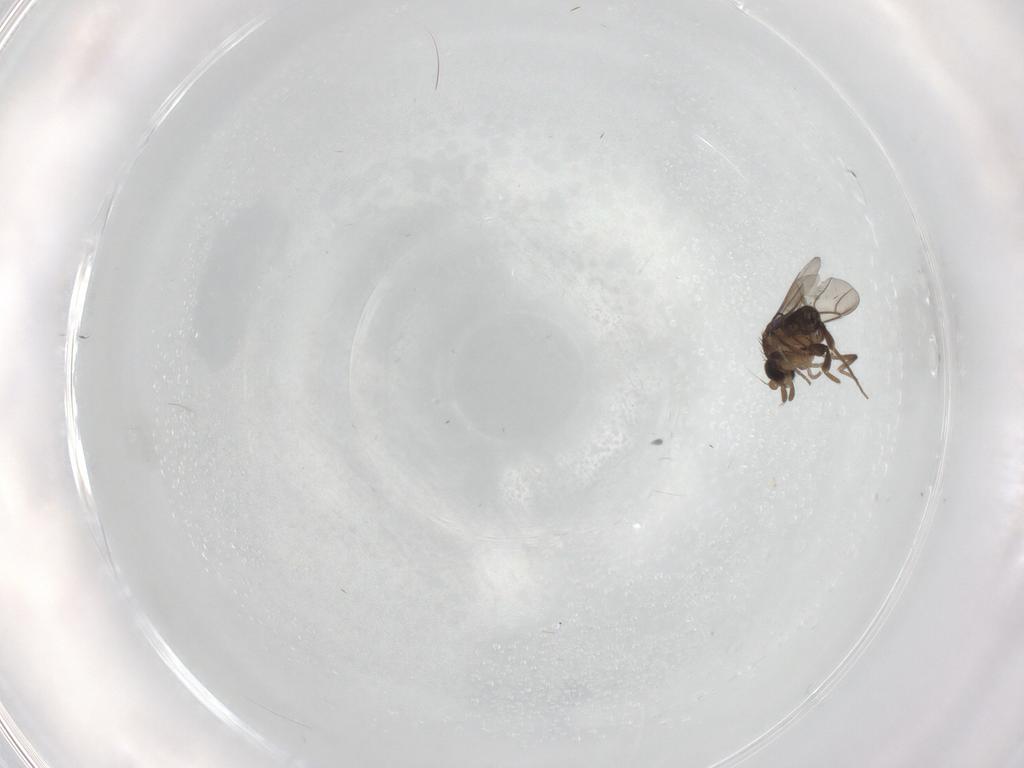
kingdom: Animalia
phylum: Arthropoda
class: Insecta
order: Diptera
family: Phoridae
